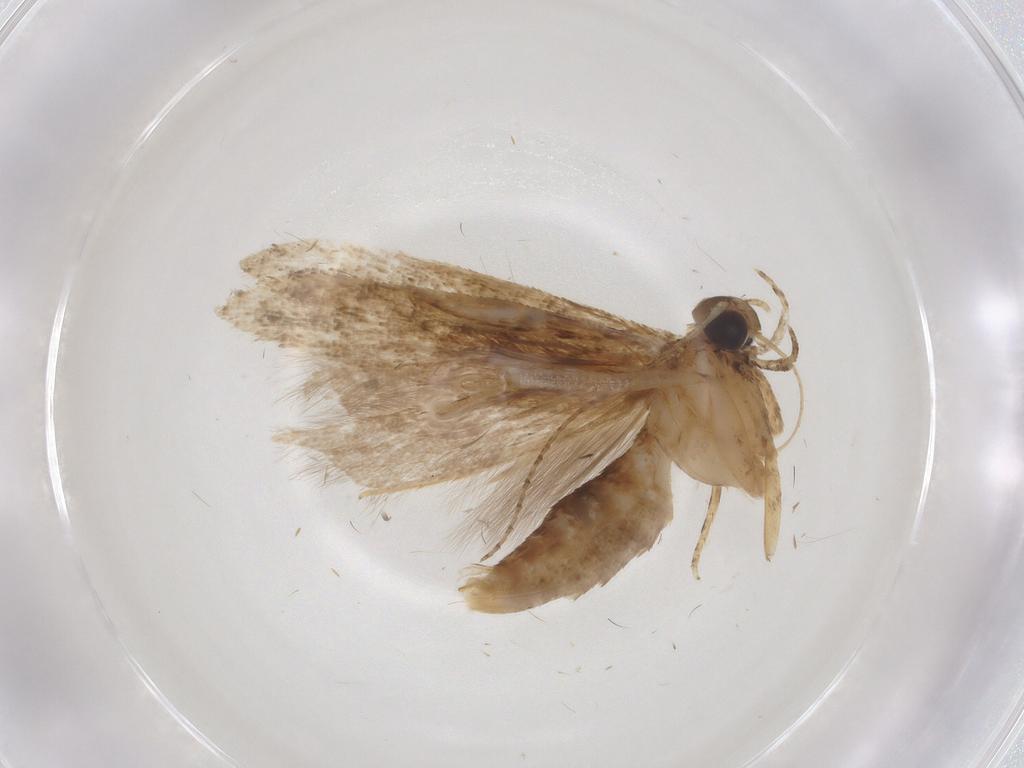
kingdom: Animalia
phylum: Arthropoda
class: Insecta
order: Lepidoptera
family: Gelechiidae
